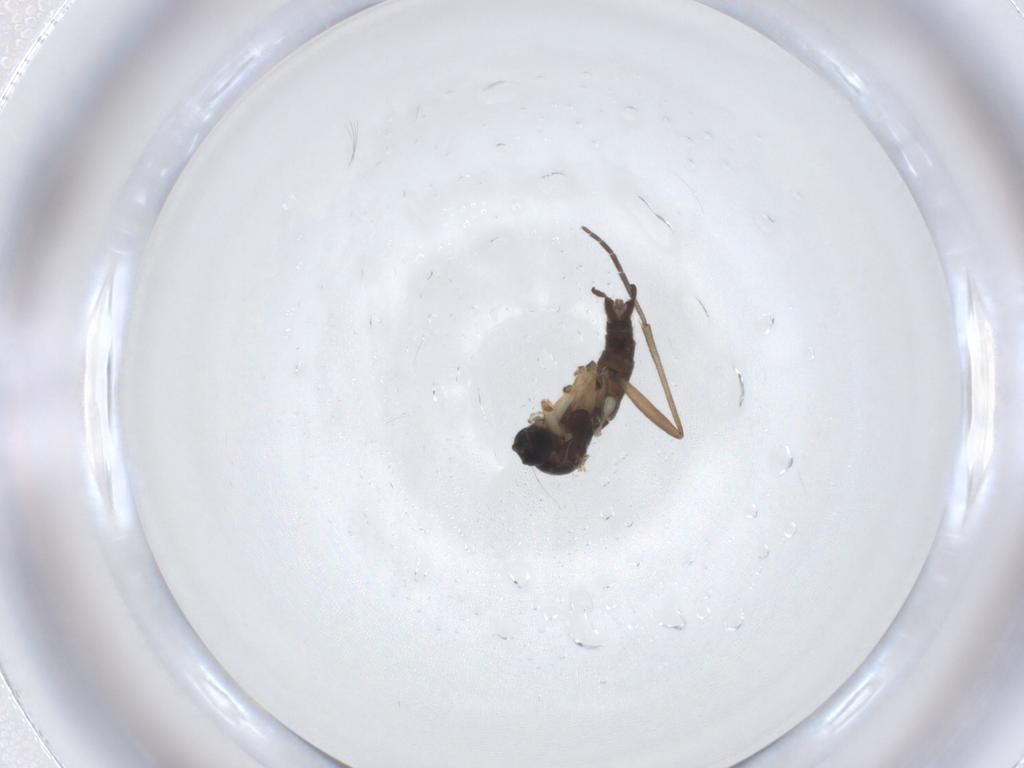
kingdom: Animalia
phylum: Arthropoda
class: Insecta
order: Diptera
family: Sciaridae
